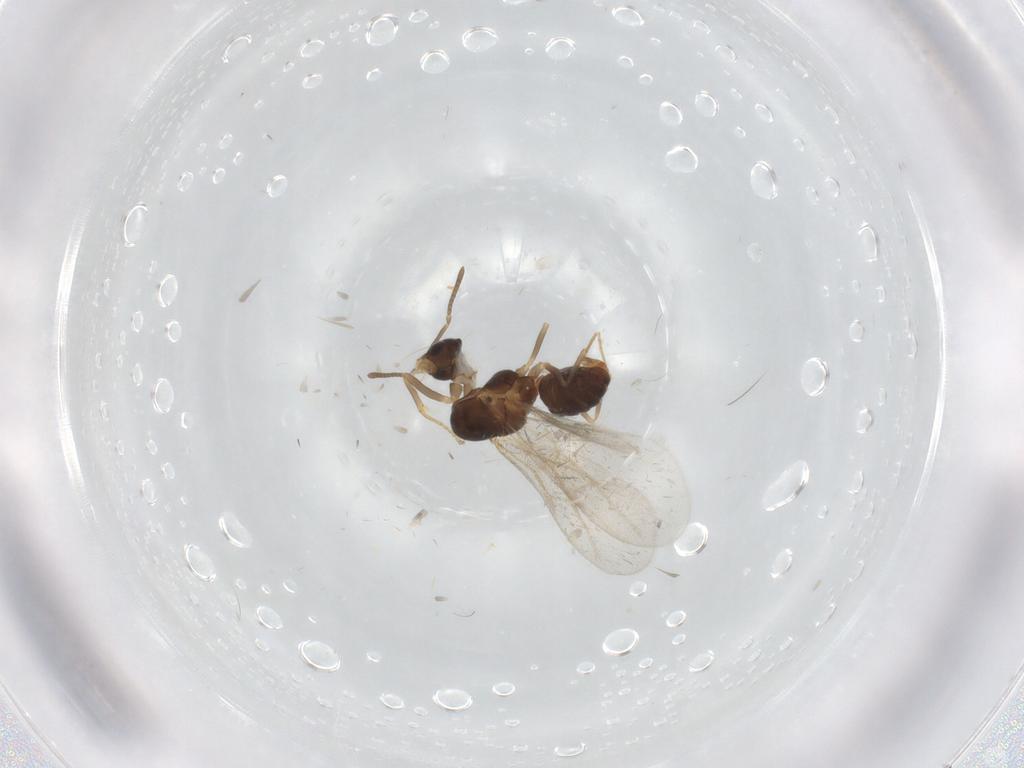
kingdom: Animalia
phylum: Arthropoda
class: Insecta
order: Hymenoptera
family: Formicidae
